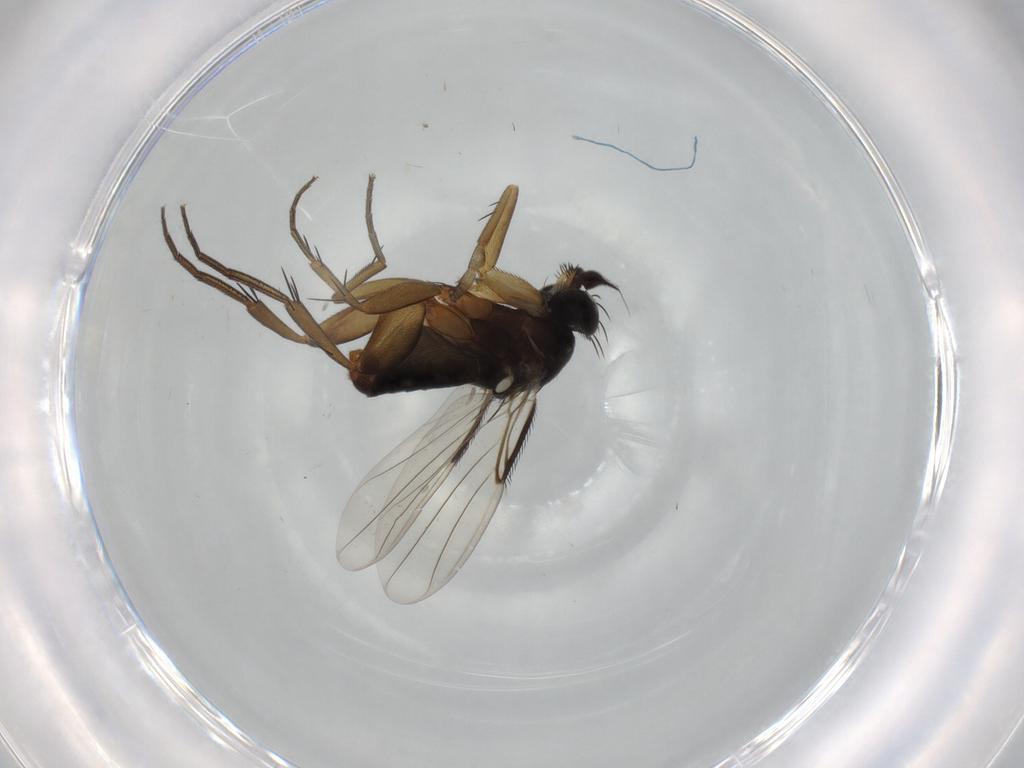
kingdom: Animalia
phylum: Arthropoda
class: Insecta
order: Diptera
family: Phoridae
